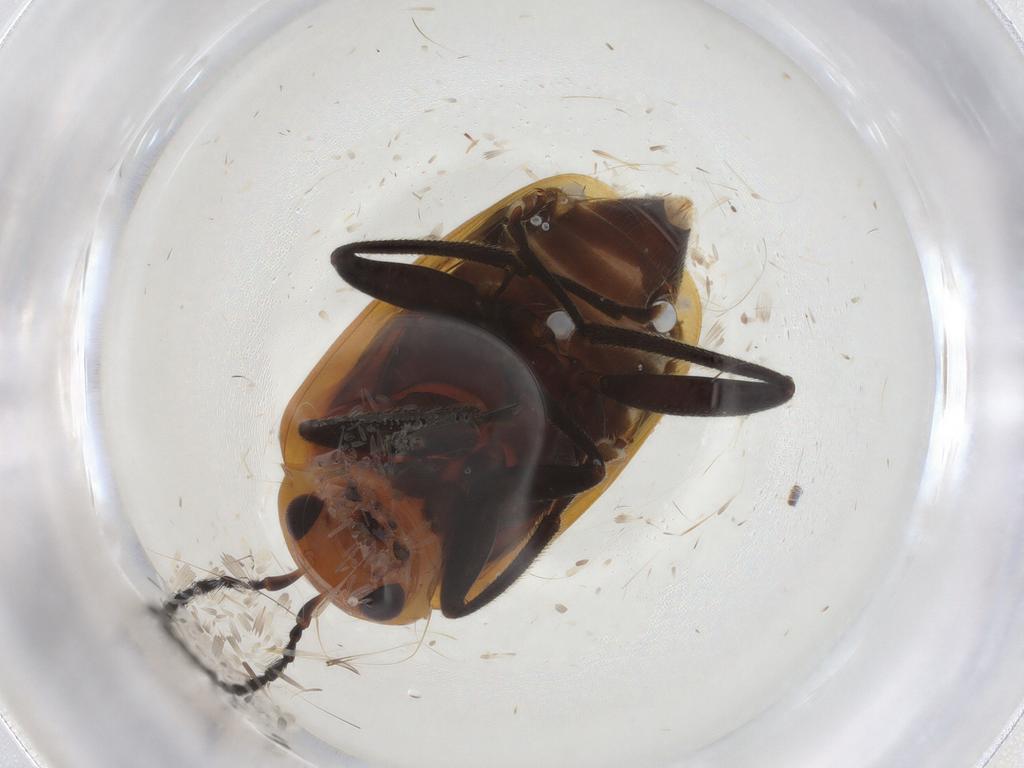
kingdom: Animalia
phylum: Arthropoda
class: Insecta
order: Coleoptera
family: Chrysomelidae
